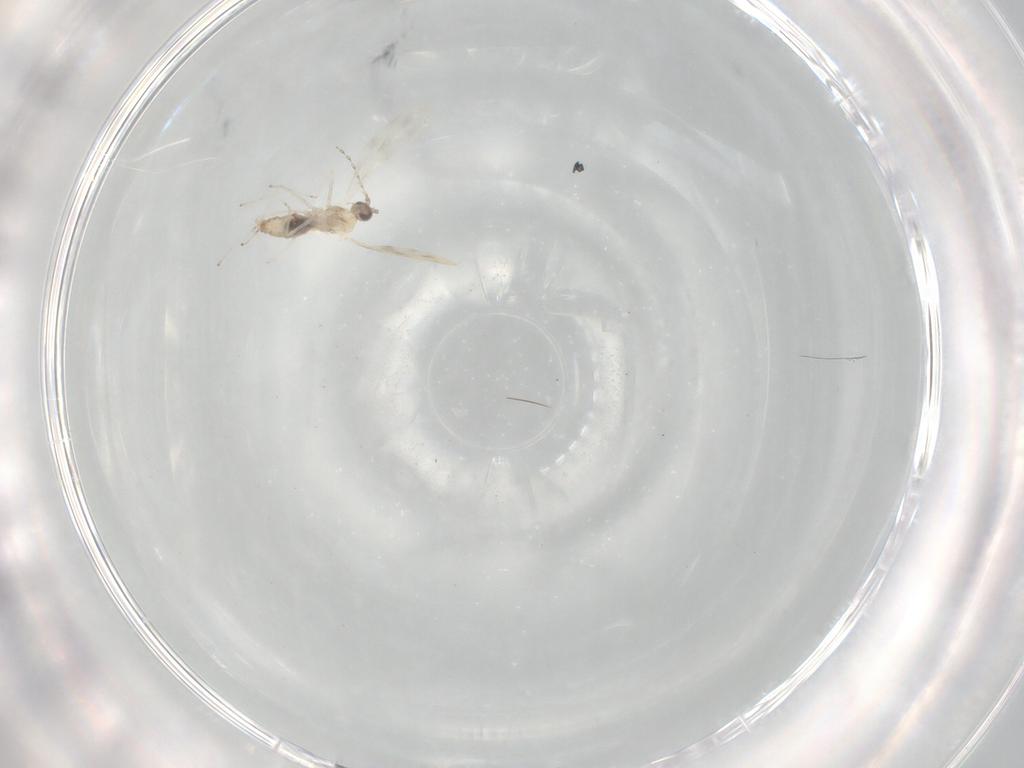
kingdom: Animalia
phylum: Arthropoda
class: Insecta
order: Diptera
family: Cecidomyiidae
